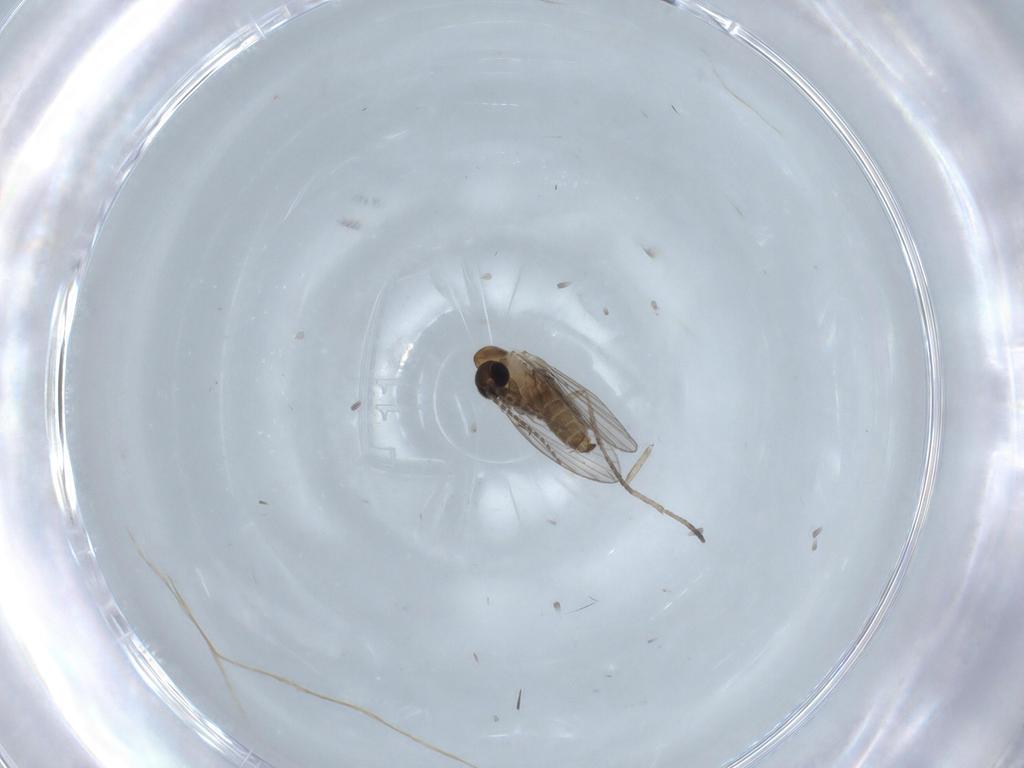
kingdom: Animalia
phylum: Arthropoda
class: Insecta
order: Diptera
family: Psychodidae
